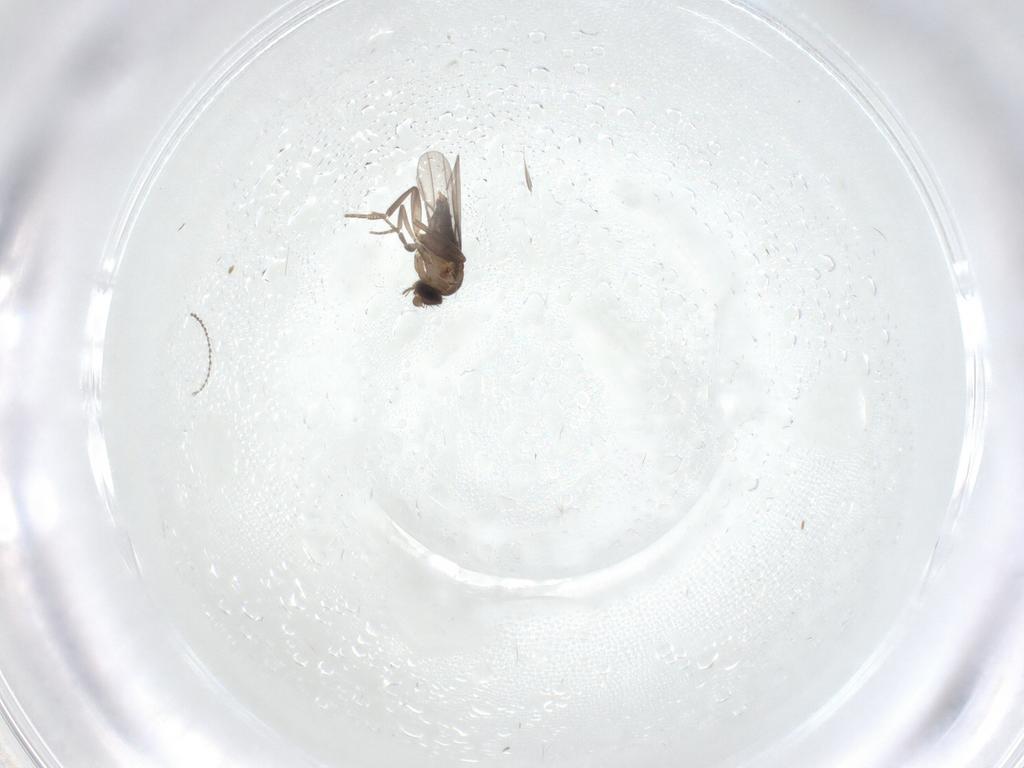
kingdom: Animalia
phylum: Arthropoda
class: Insecta
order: Diptera
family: Phoridae
